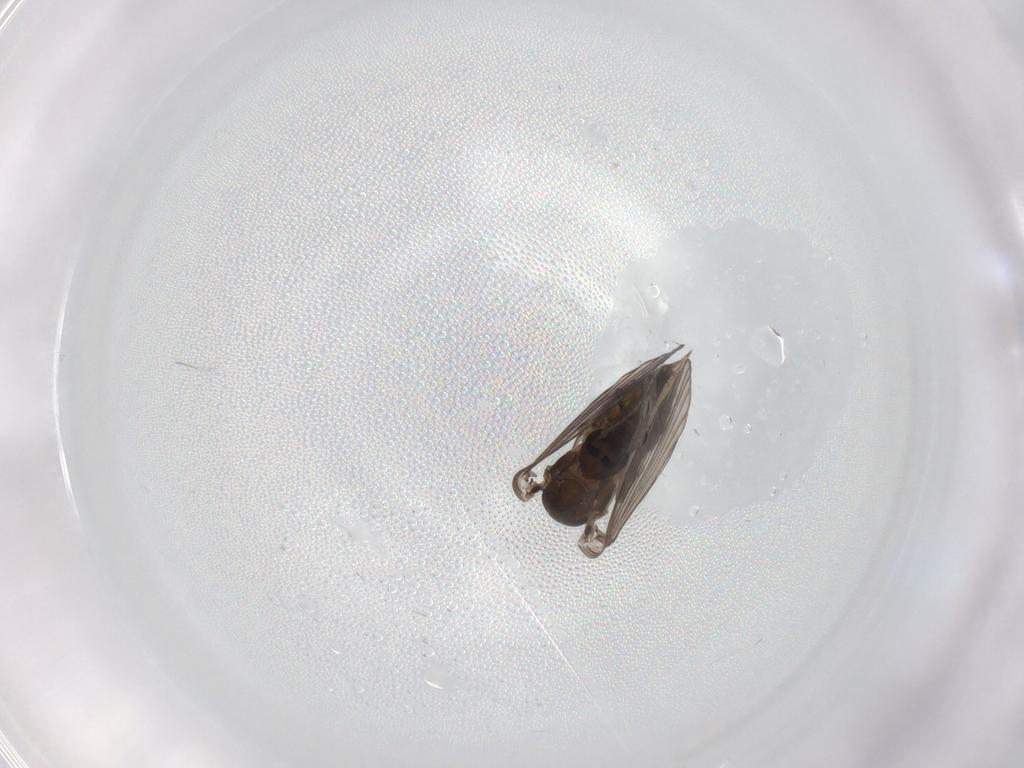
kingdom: Animalia
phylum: Arthropoda
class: Insecta
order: Diptera
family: Psychodidae
